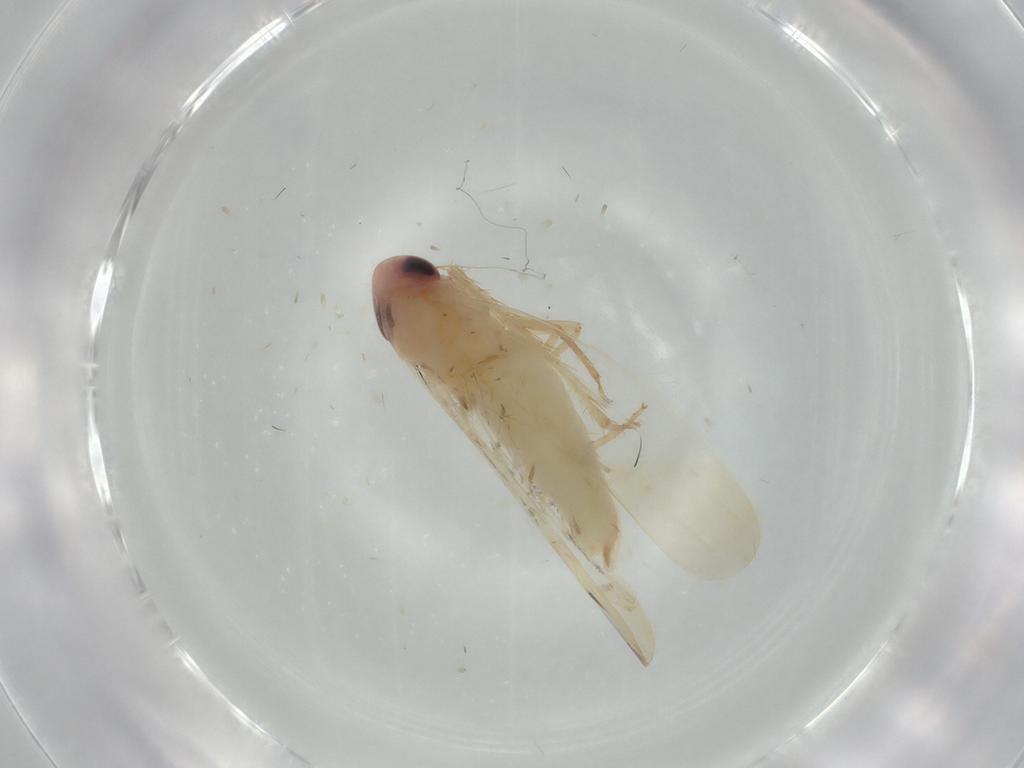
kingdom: Animalia
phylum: Arthropoda
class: Insecta
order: Hemiptera
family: Cicadellidae
